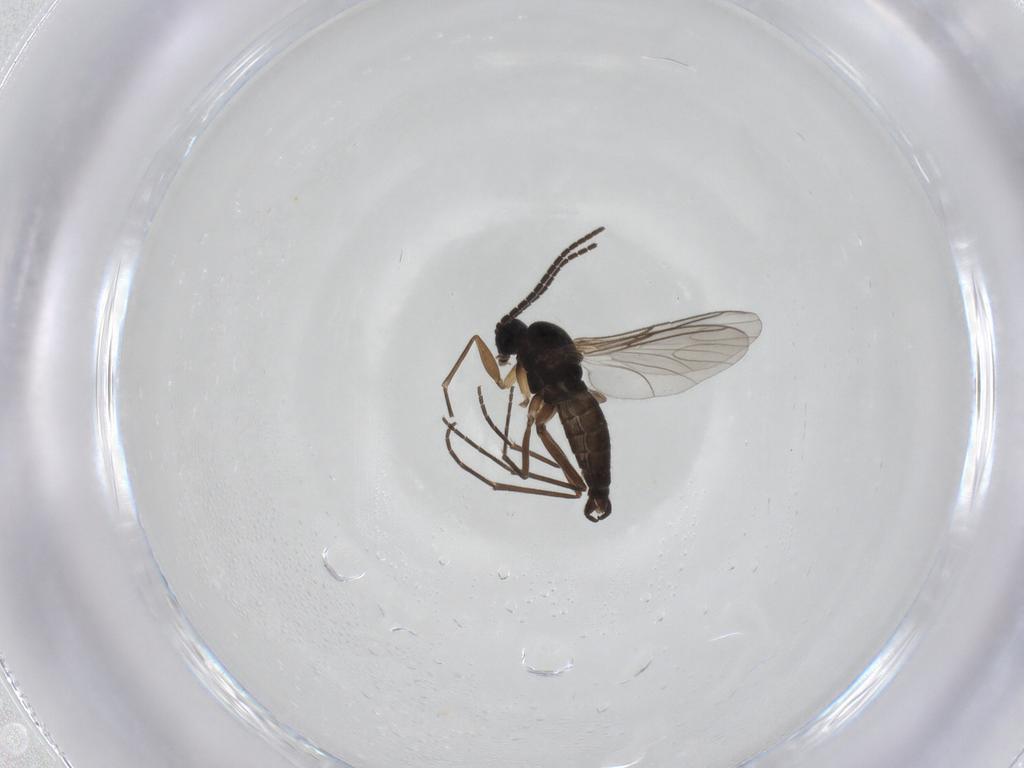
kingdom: Animalia
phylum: Arthropoda
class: Insecta
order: Diptera
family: Sciaridae
